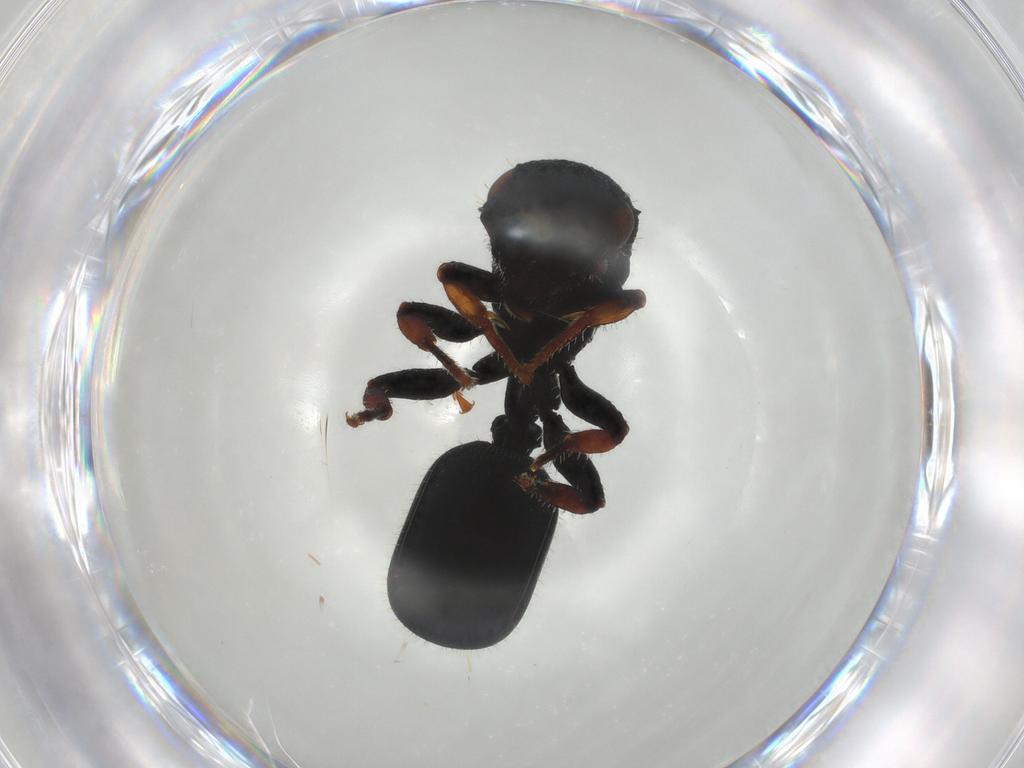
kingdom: Animalia
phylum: Arthropoda
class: Insecta
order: Hymenoptera
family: Formicidae
